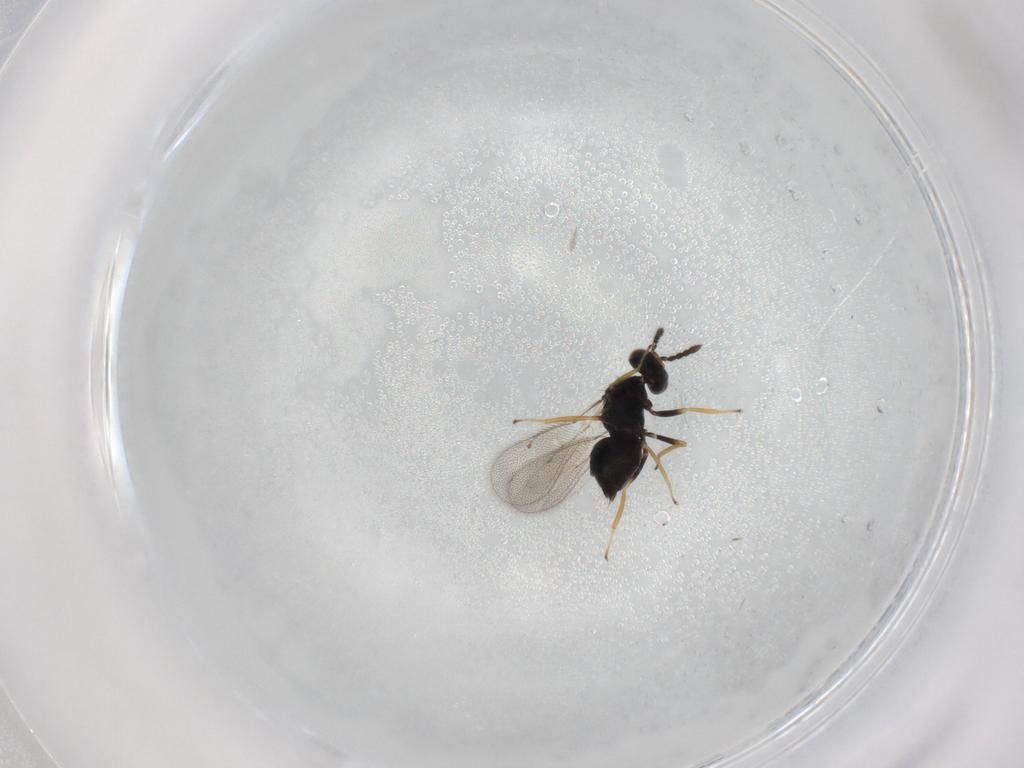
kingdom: Animalia
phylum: Arthropoda
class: Insecta
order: Hymenoptera
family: Eulophidae
